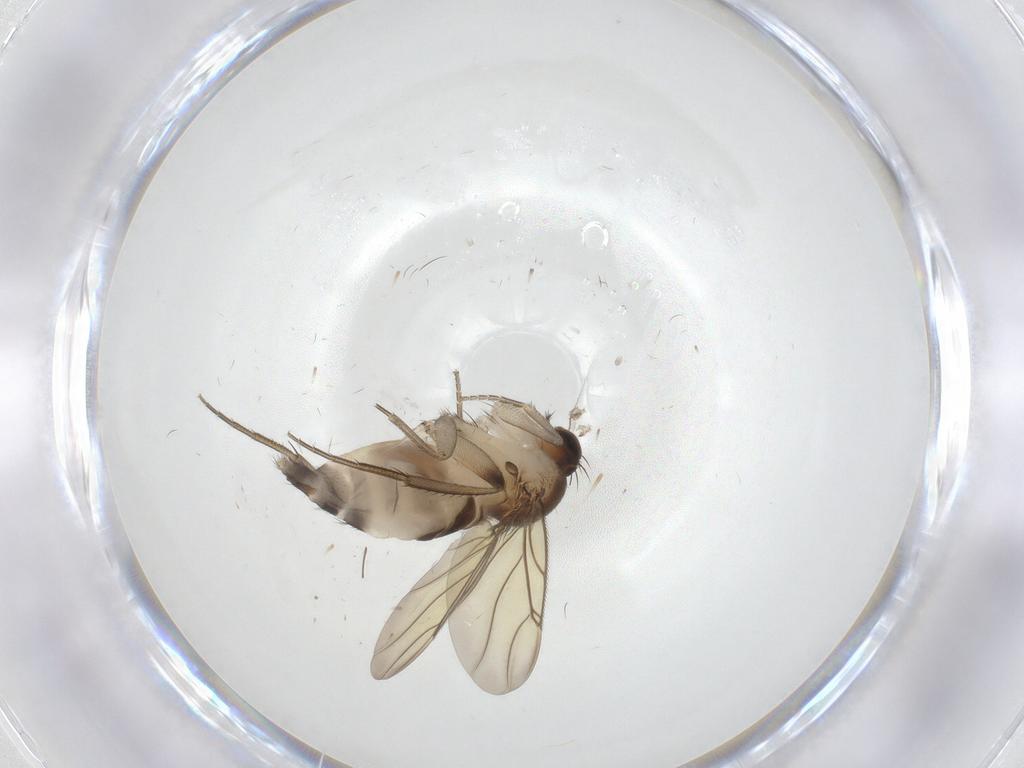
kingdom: Animalia
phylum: Arthropoda
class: Insecta
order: Diptera
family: Phoridae
